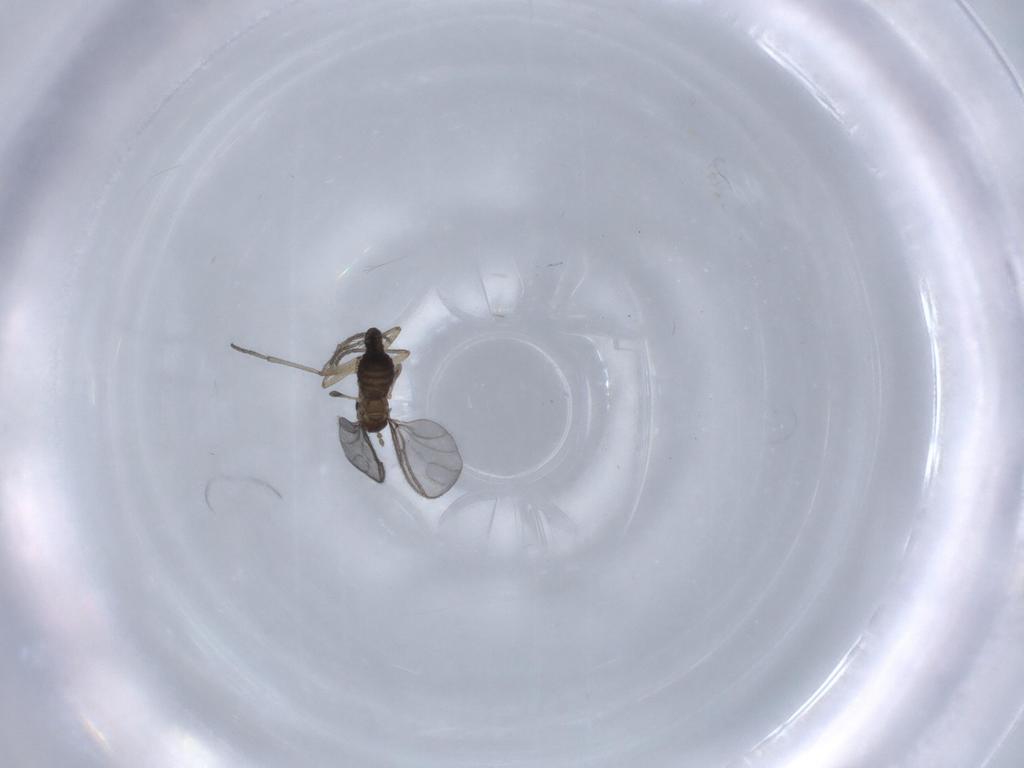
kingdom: Animalia
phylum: Arthropoda
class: Insecta
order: Diptera
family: Sciaridae
